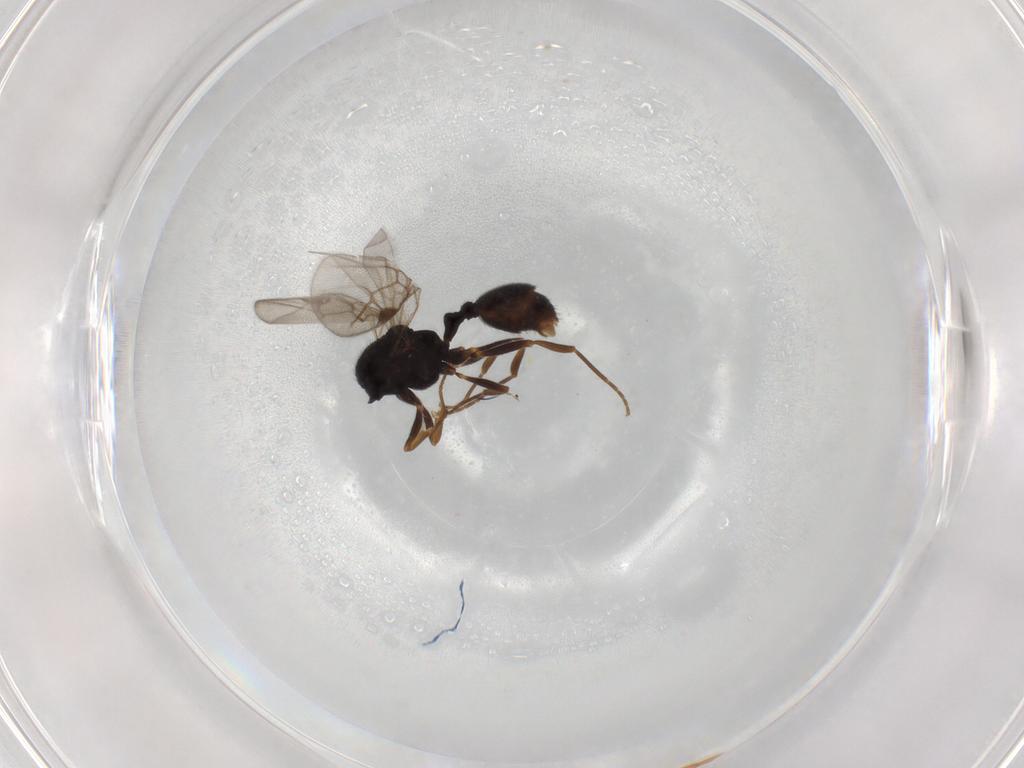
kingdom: Animalia
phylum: Arthropoda
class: Insecta
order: Hymenoptera
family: Formicidae
